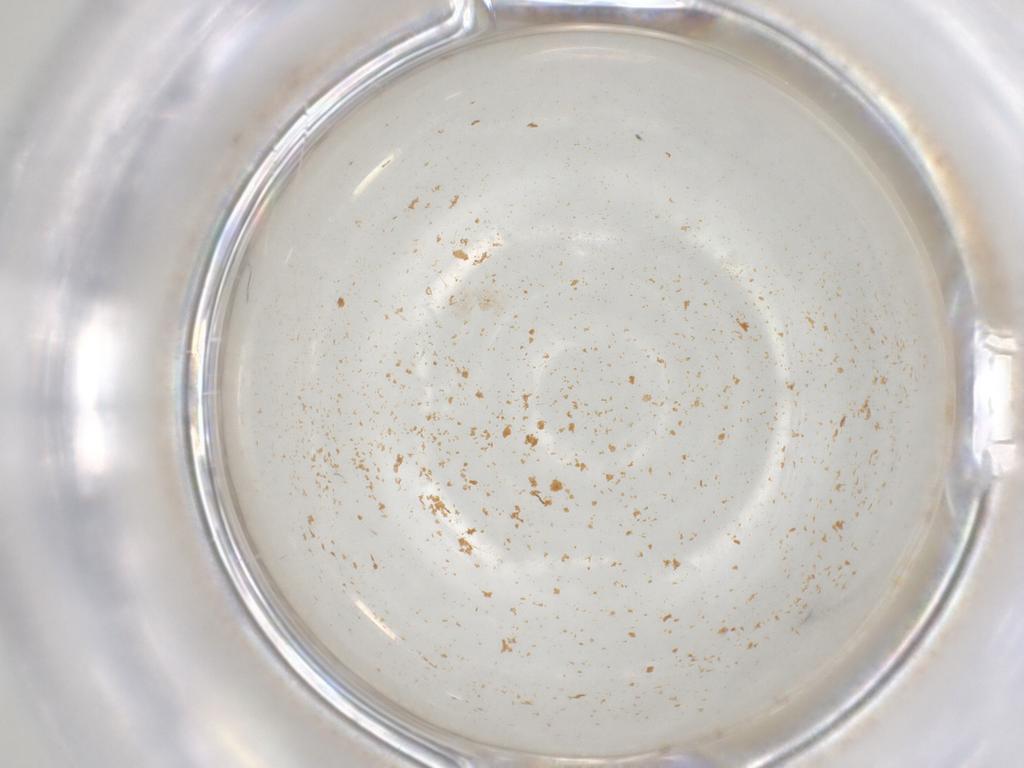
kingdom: Animalia
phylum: Arthropoda
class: Insecta
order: Diptera
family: Cecidomyiidae
